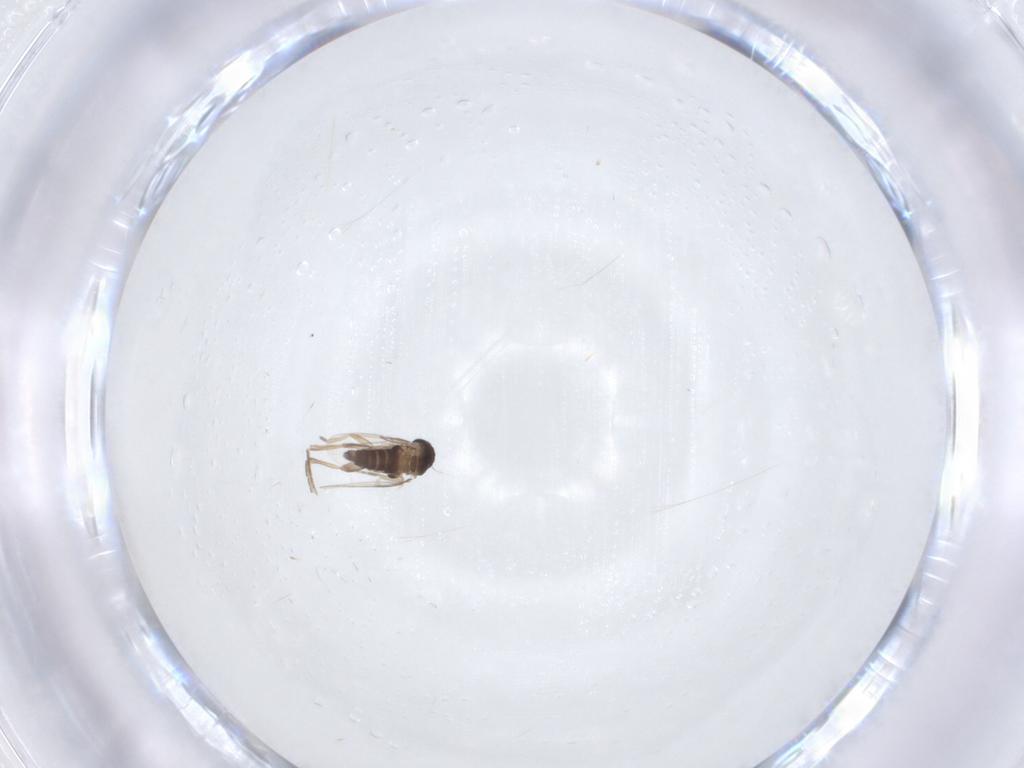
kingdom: Animalia
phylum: Arthropoda
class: Insecta
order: Diptera
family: Phoridae
